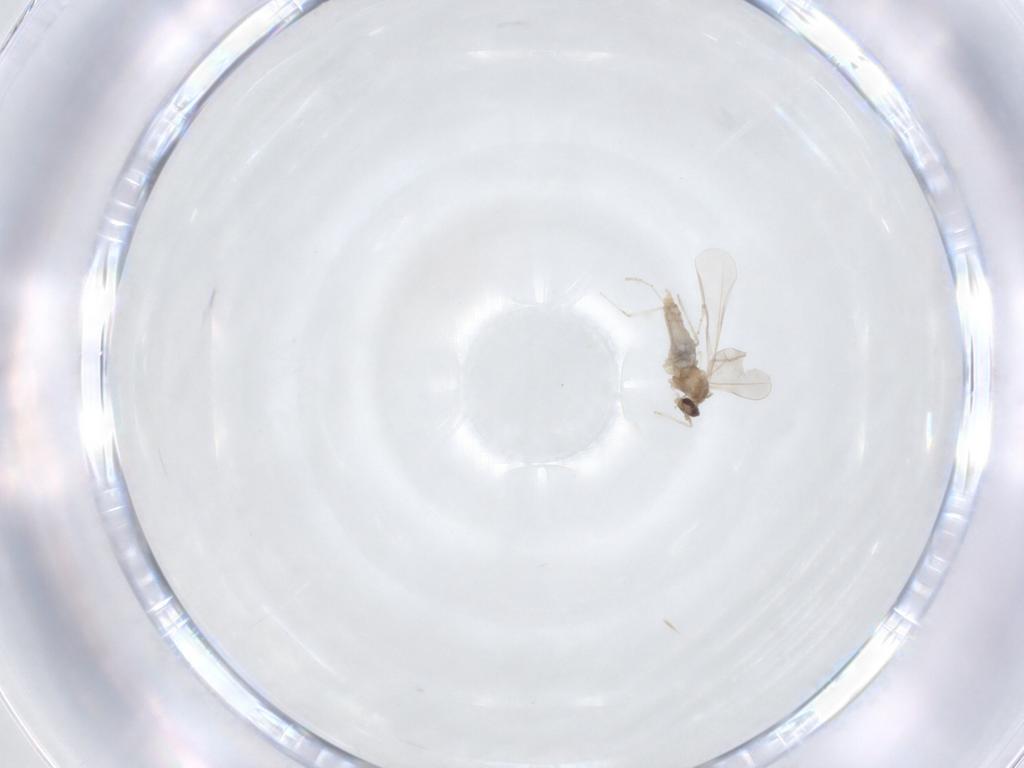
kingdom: Animalia
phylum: Arthropoda
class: Insecta
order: Diptera
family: Cecidomyiidae
